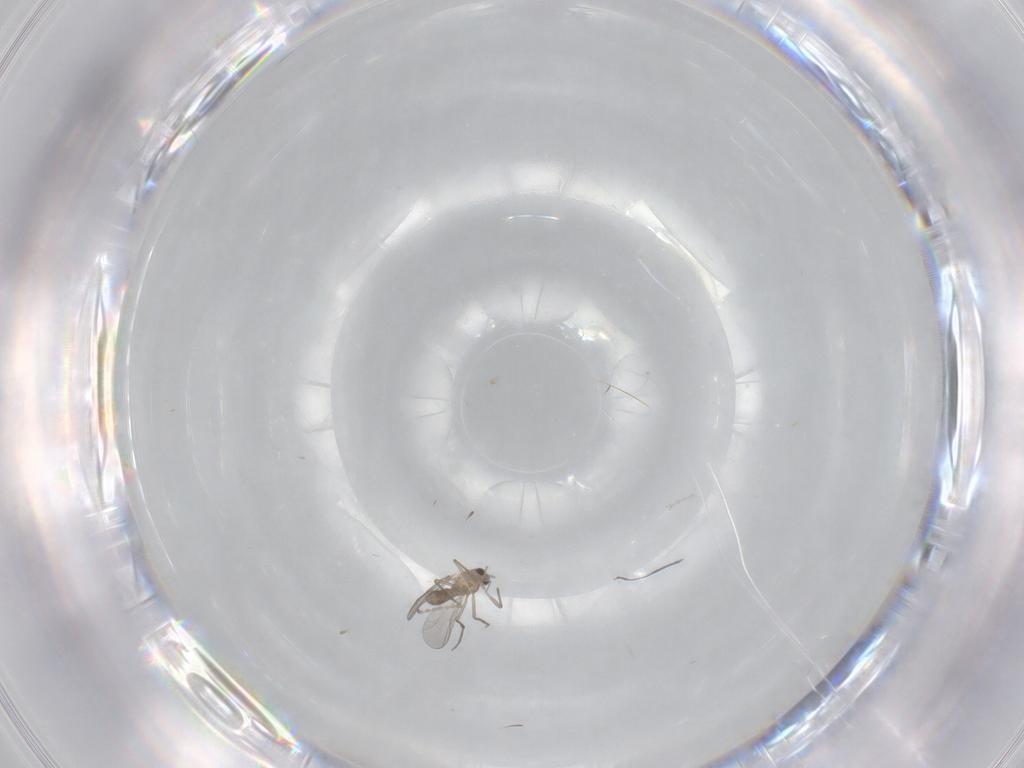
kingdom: Animalia
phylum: Arthropoda
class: Insecta
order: Diptera
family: Chironomidae
